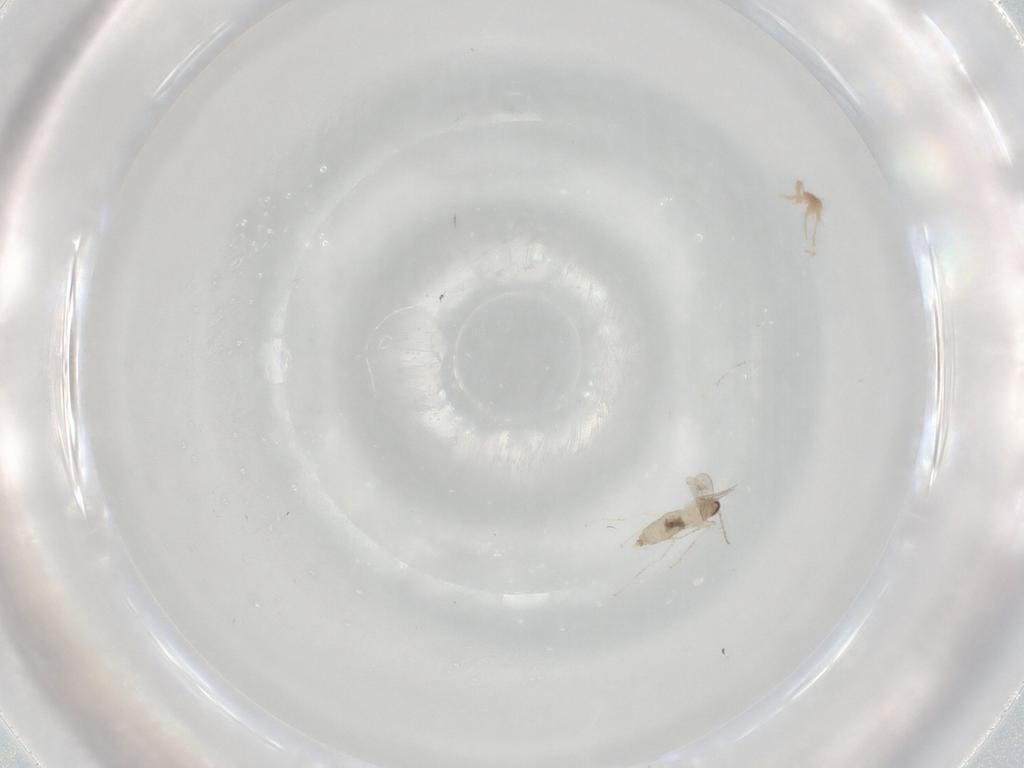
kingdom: Animalia
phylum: Arthropoda
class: Insecta
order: Diptera
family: Cecidomyiidae
